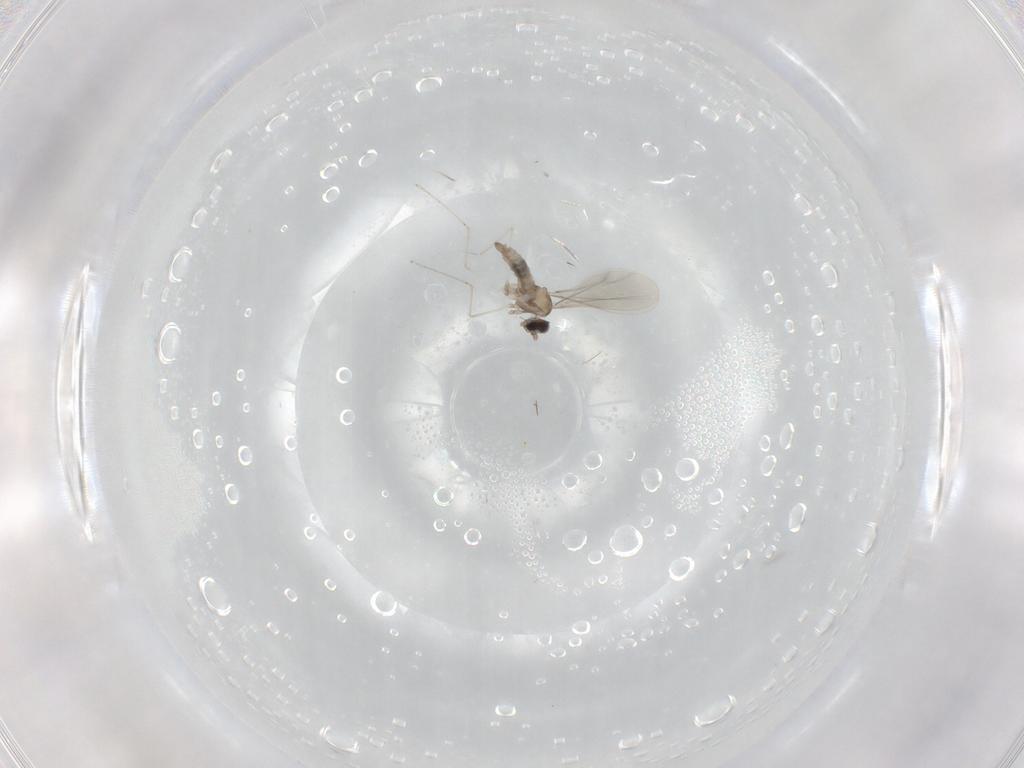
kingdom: Animalia
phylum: Arthropoda
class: Insecta
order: Diptera
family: Cecidomyiidae
